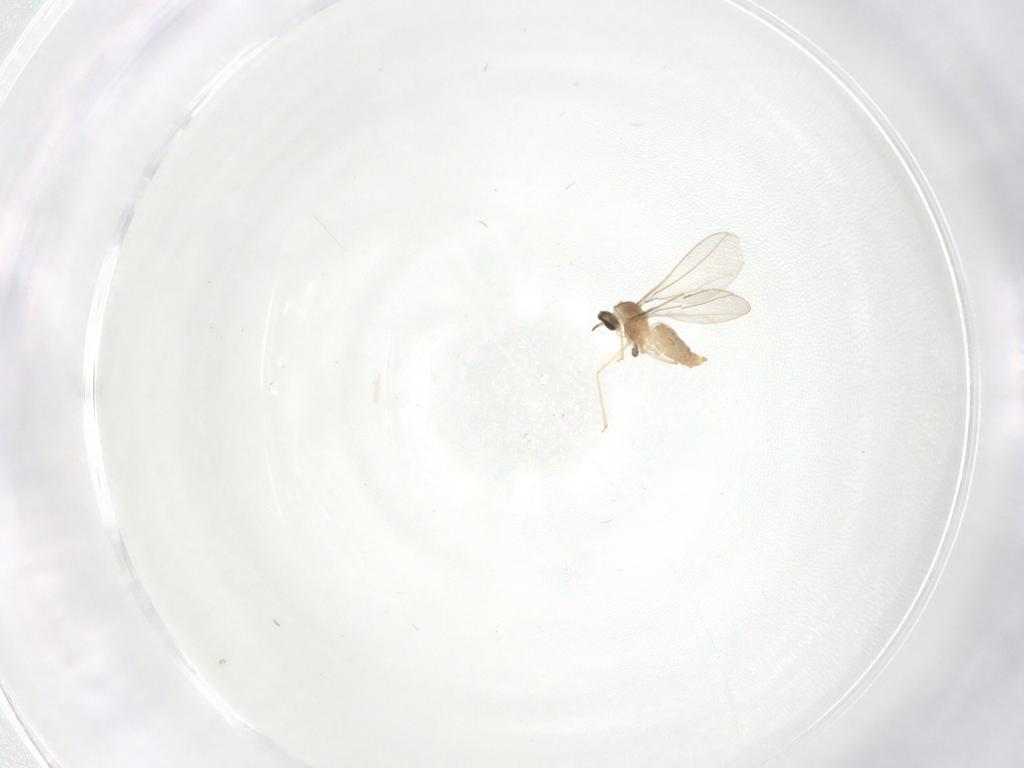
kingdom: Animalia
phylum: Arthropoda
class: Insecta
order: Diptera
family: Cecidomyiidae
